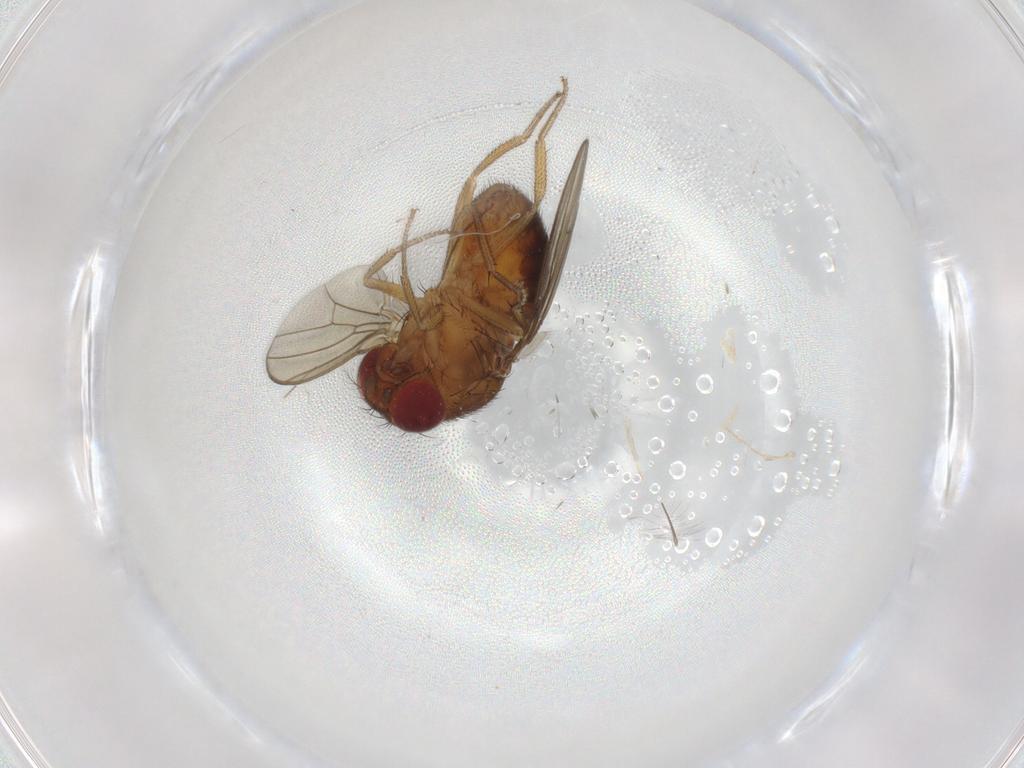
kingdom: Animalia
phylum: Arthropoda
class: Insecta
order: Diptera
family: Drosophilidae
